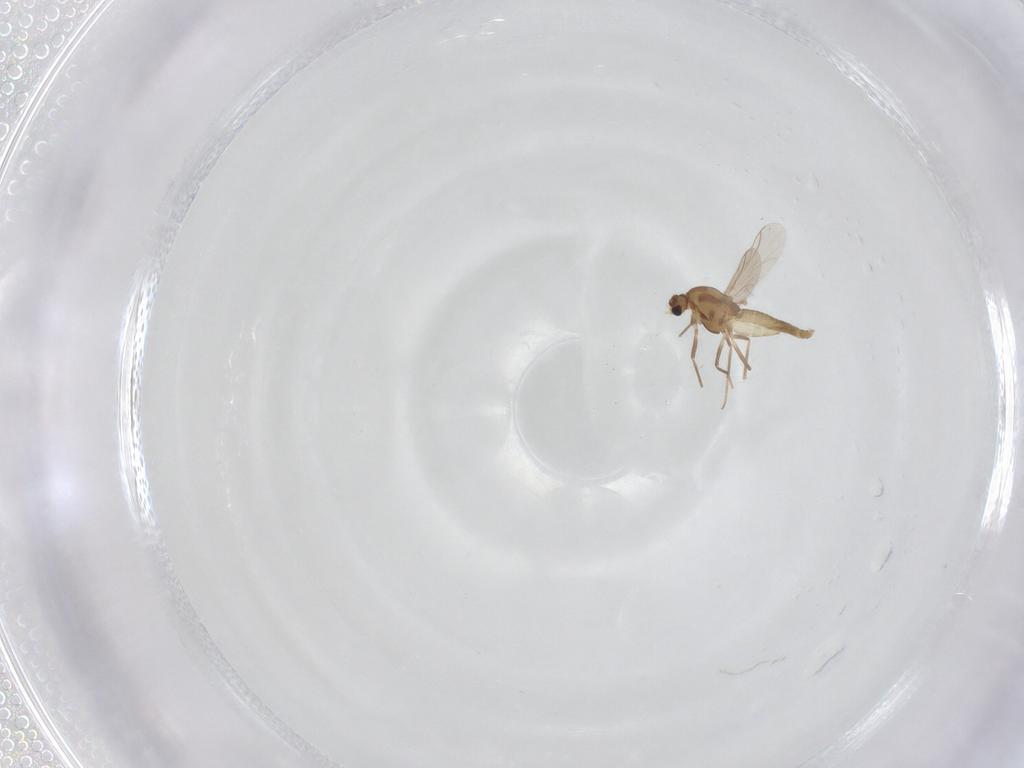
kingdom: Animalia
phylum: Arthropoda
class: Insecta
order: Diptera
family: Chironomidae
